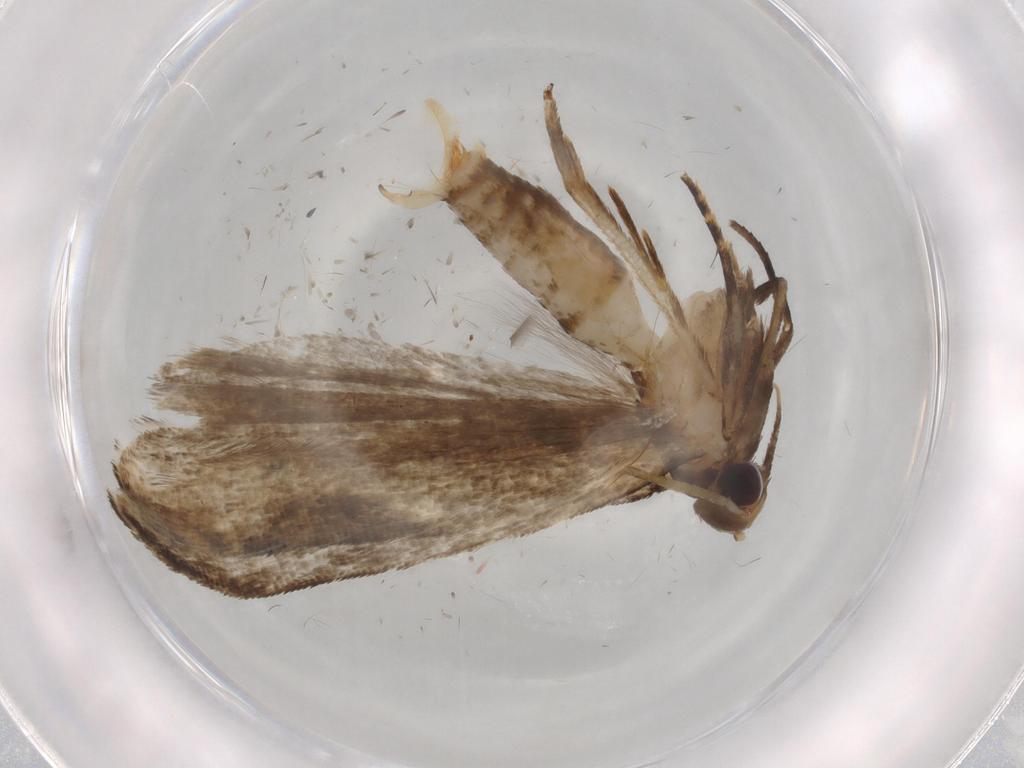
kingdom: Animalia
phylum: Arthropoda
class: Insecta
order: Lepidoptera
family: Gelechiidae
